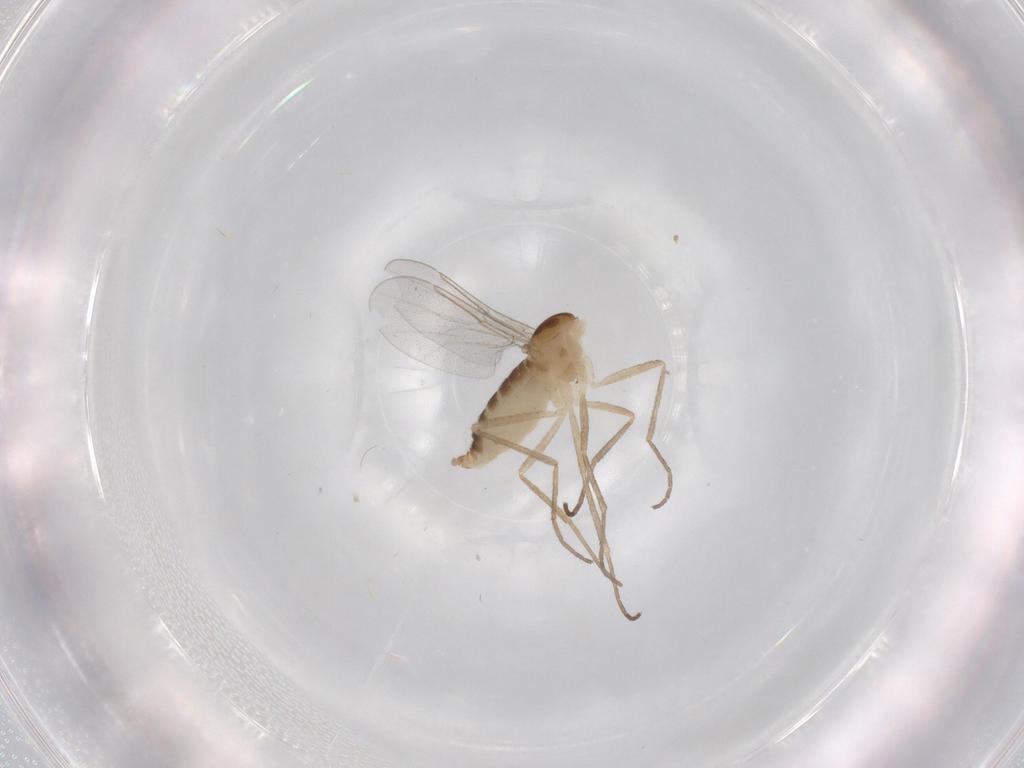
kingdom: Animalia
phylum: Arthropoda
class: Insecta
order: Diptera
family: Cecidomyiidae
